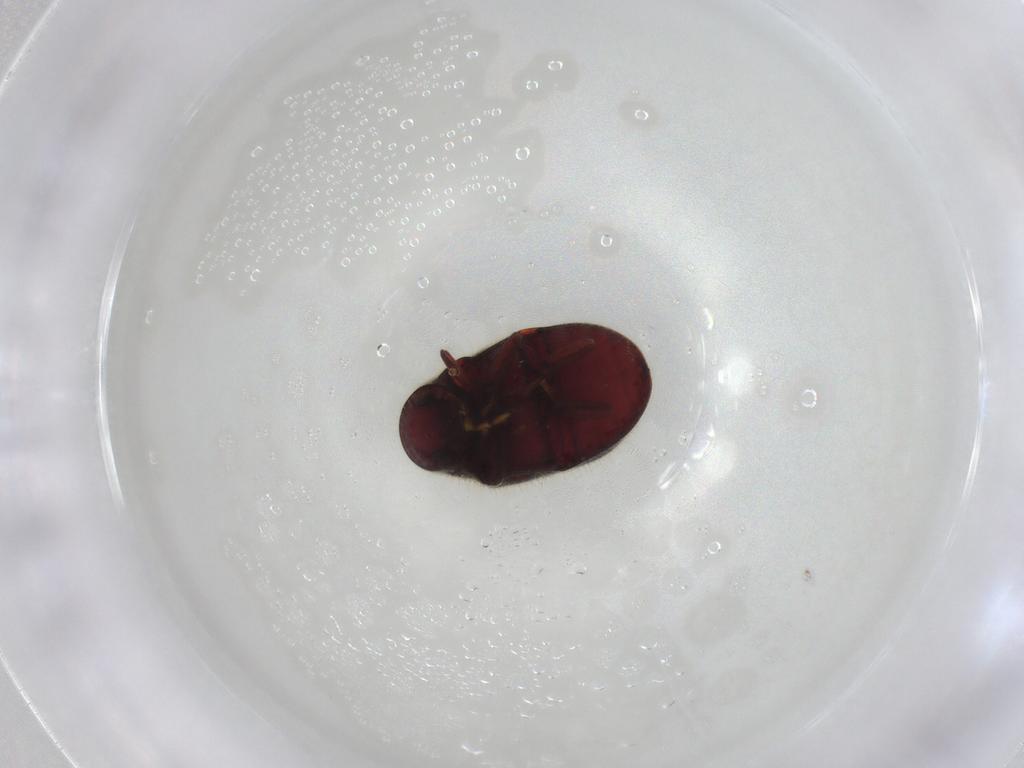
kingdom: Animalia
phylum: Arthropoda
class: Insecta
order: Coleoptera
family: Ptinidae
